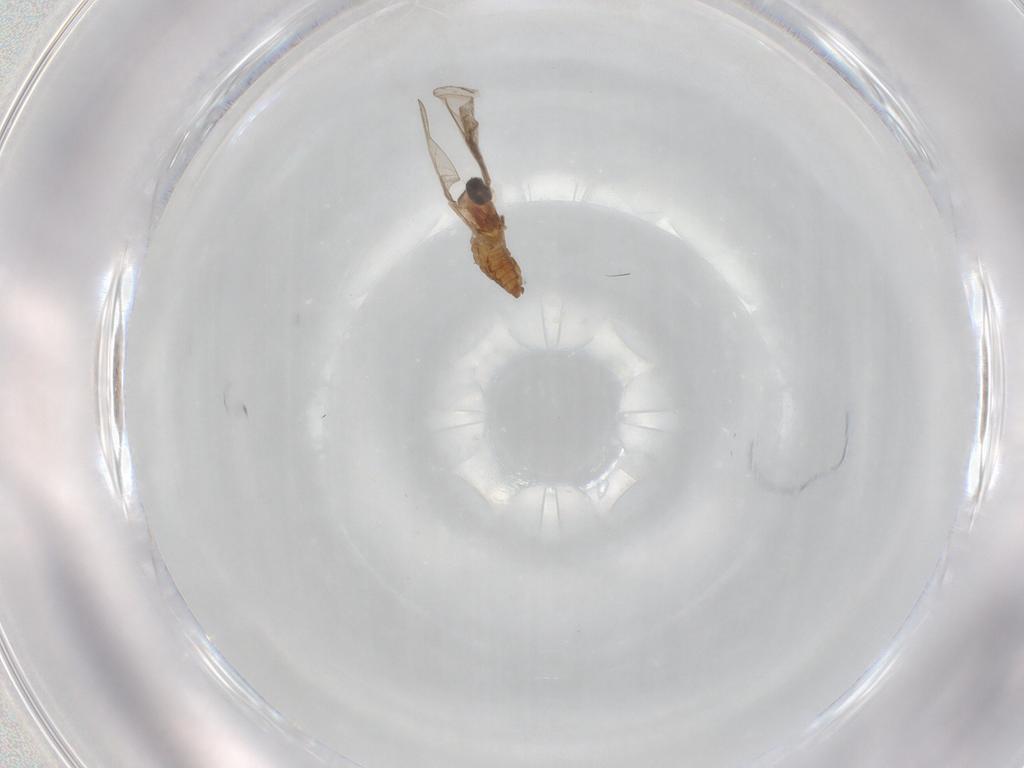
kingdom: Animalia
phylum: Arthropoda
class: Insecta
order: Diptera
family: Cecidomyiidae
